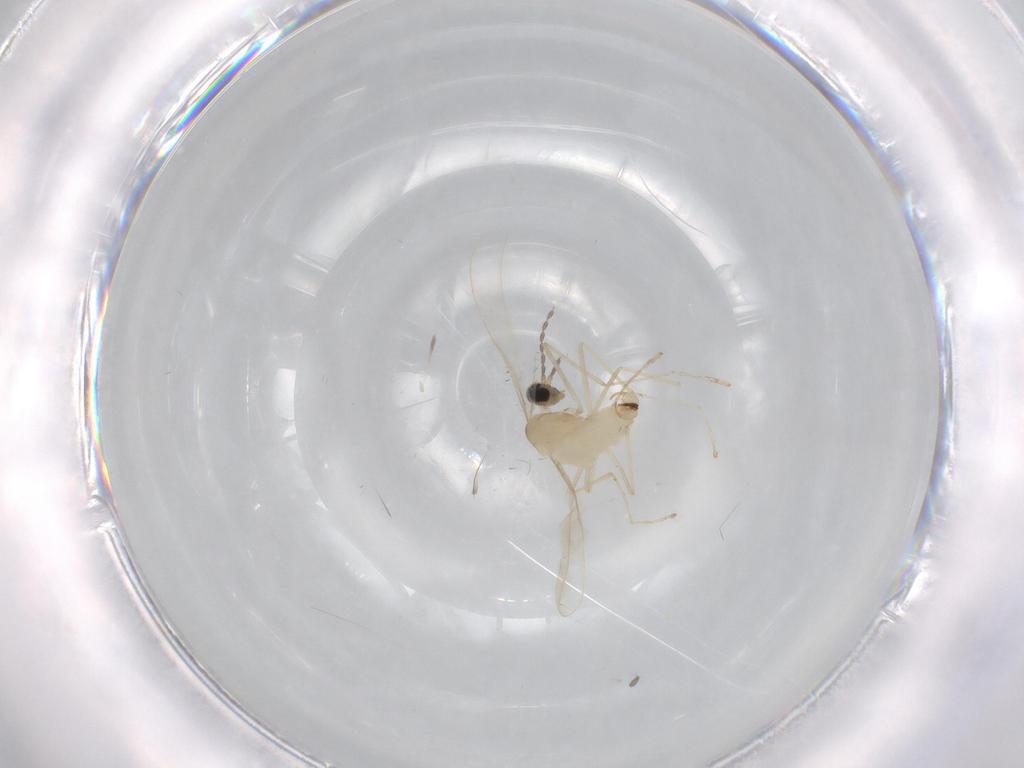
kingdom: Animalia
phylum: Arthropoda
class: Insecta
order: Diptera
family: Cecidomyiidae
